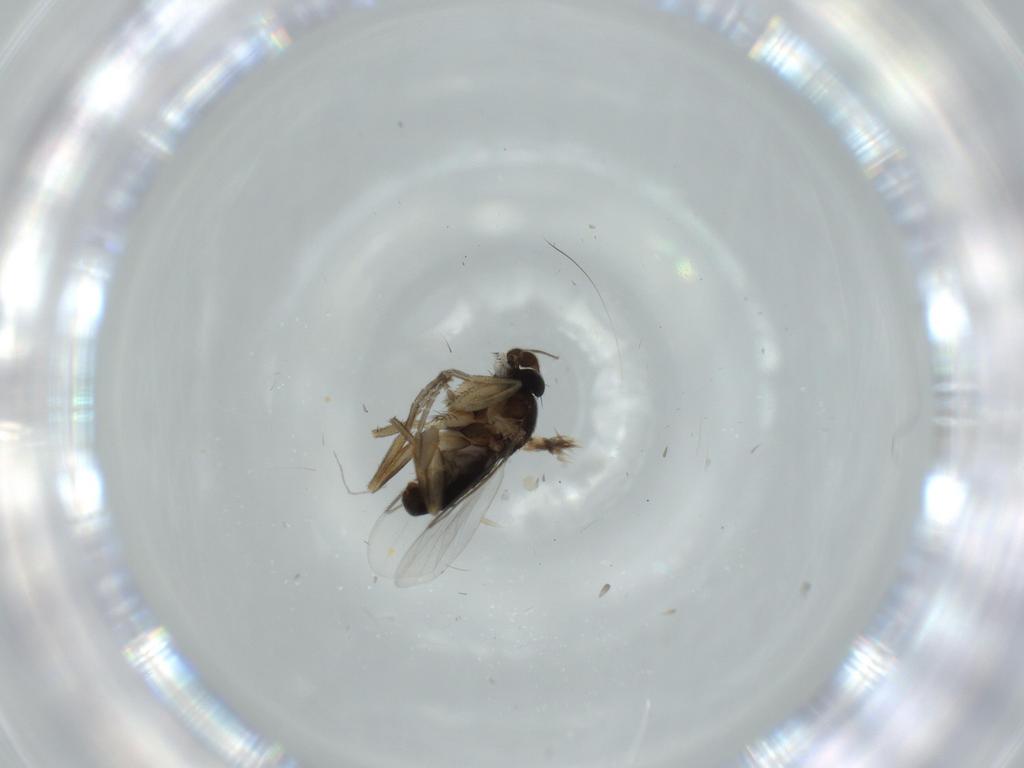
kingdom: Animalia
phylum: Arthropoda
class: Insecta
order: Diptera
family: Phoridae
